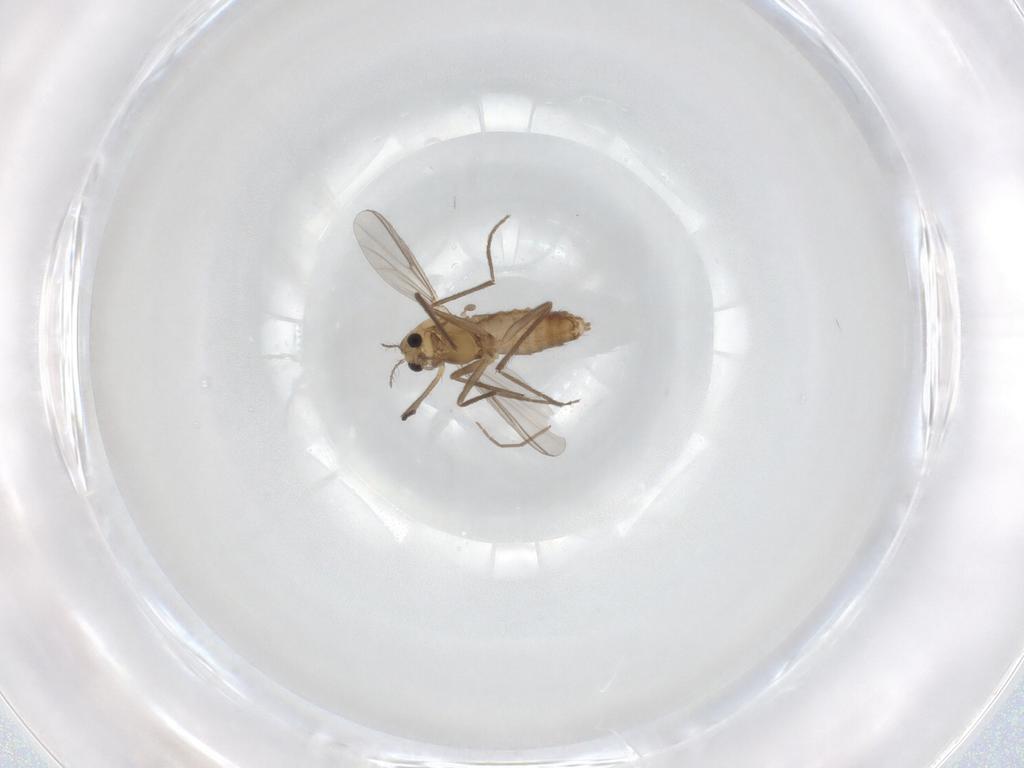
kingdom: Animalia
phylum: Arthropoda
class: Insecta
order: Diptera
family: Chironomidae
